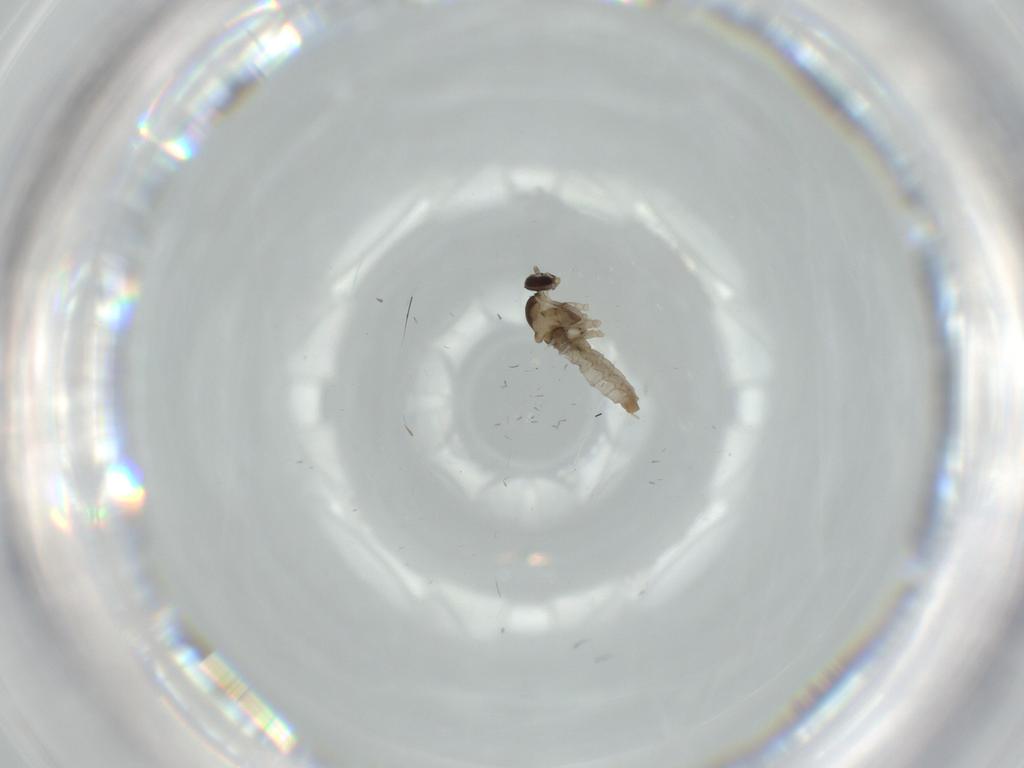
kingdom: Animalia
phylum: Arthropoda
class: Insecta
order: Diptera
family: Cecidomyiidae
